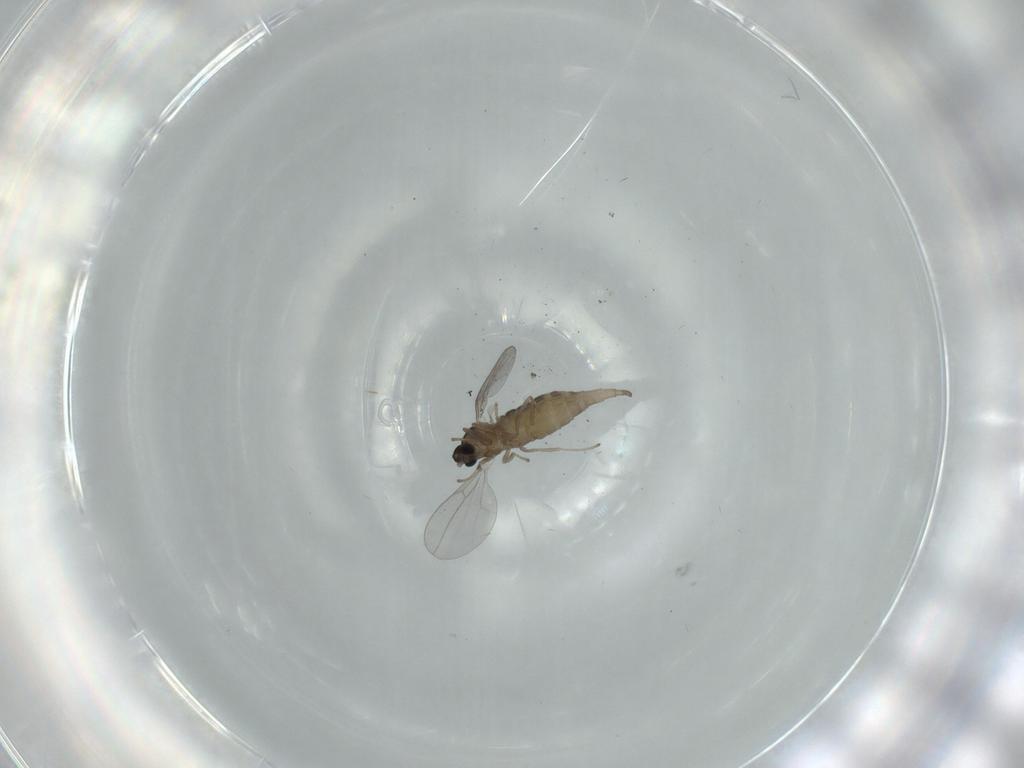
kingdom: Animalia
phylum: Arthropoda
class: Insecta
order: Diptera
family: Cecidomyiidae
